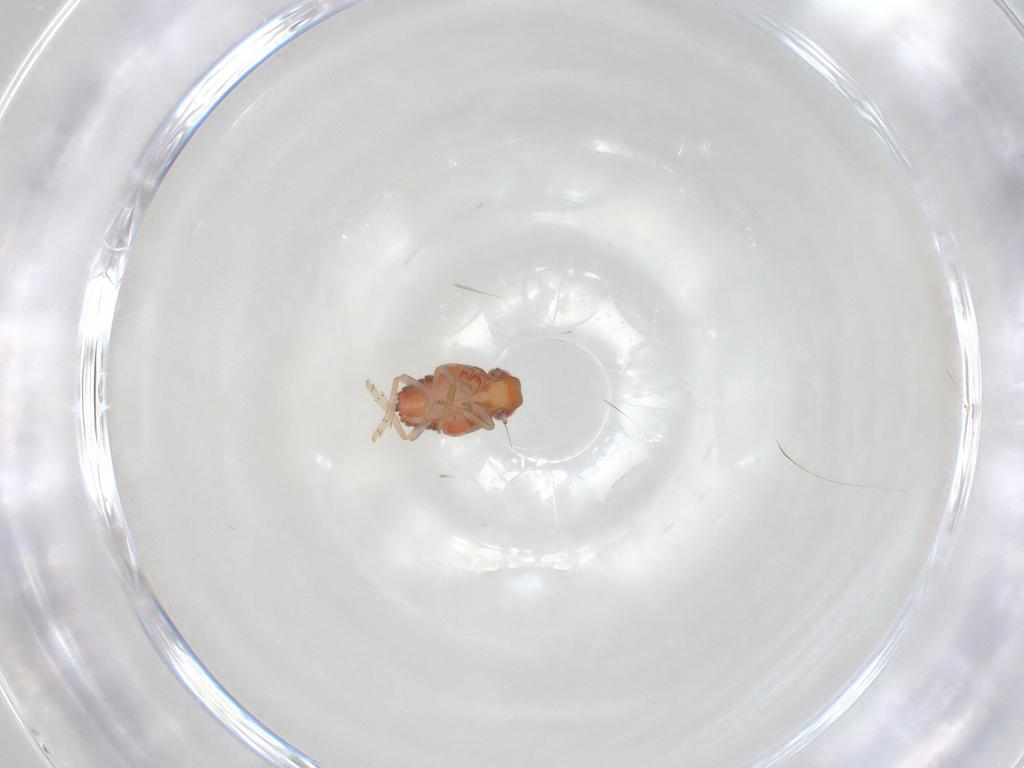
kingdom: Animalia
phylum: Arthropoda
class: Insecta
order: Hemiptera
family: Issidae
